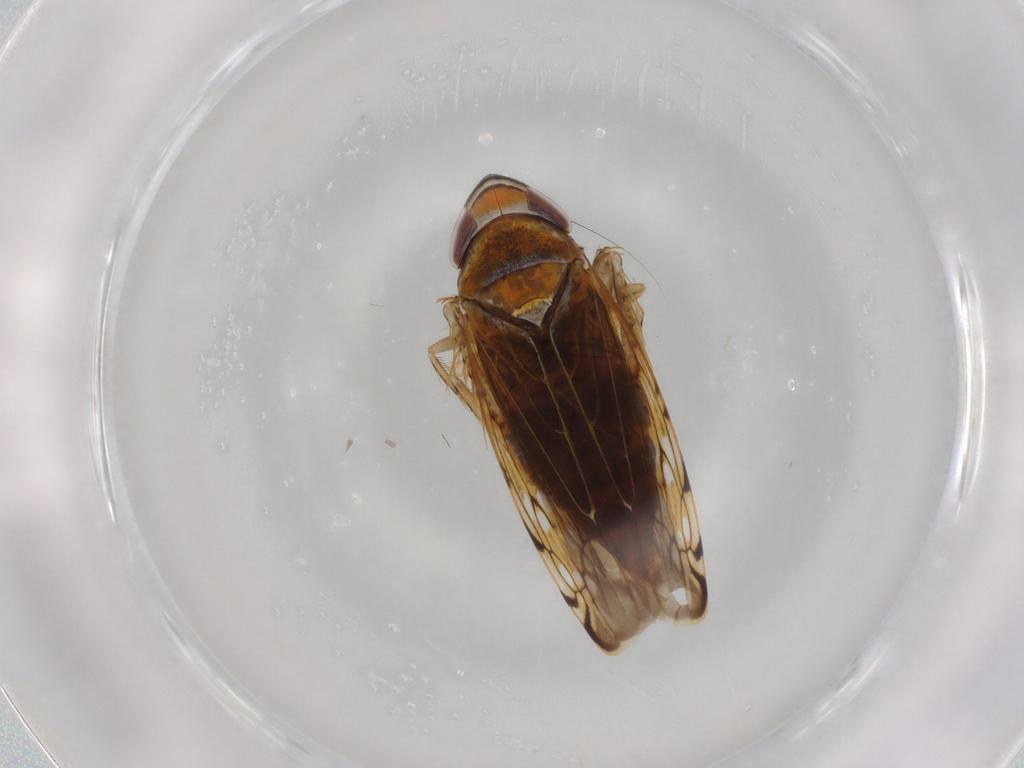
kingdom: Animalia
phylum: Arthropoda
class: Insecta
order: Hemiptera
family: Cicadellidae
